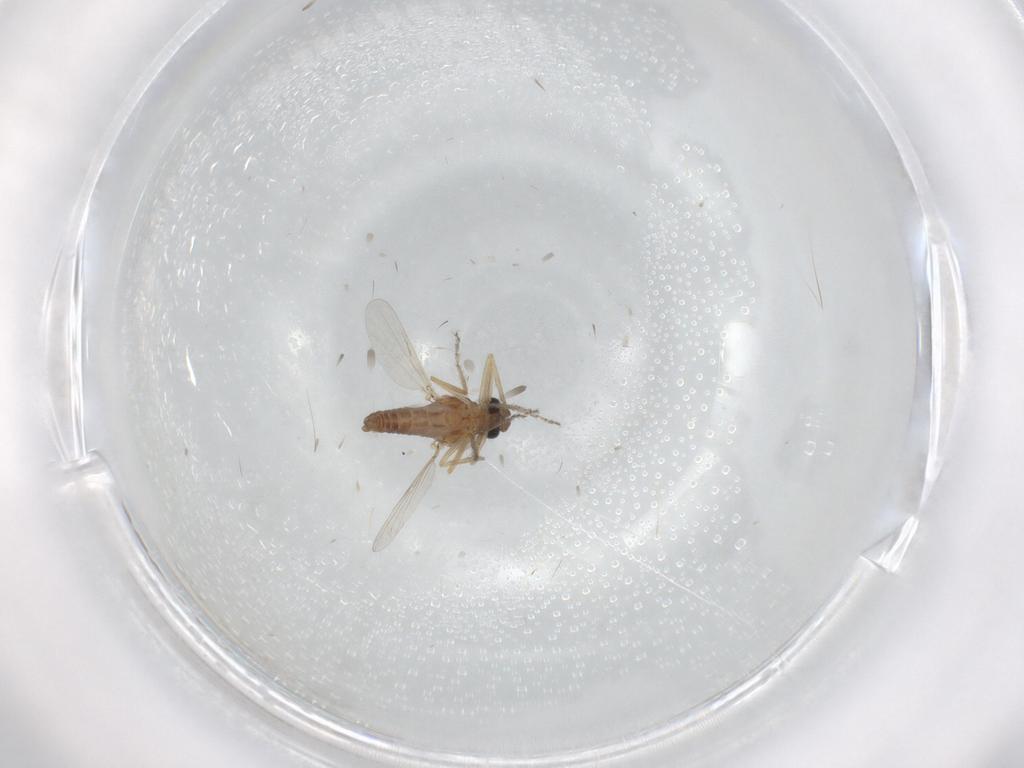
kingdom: Animalia
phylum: Arthropoda
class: Insecta
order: Diptera
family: Ceratopogonidae
